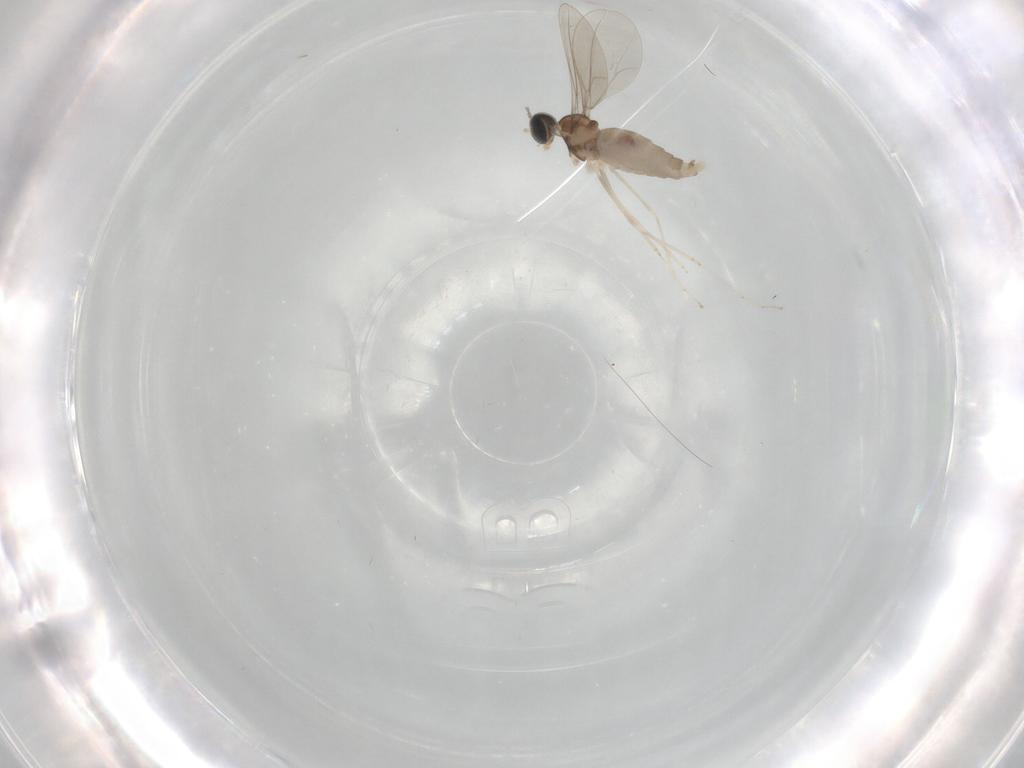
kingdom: Animalia
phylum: Arthropoda
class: Insecta
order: Diptera
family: Cecidomyiidae
